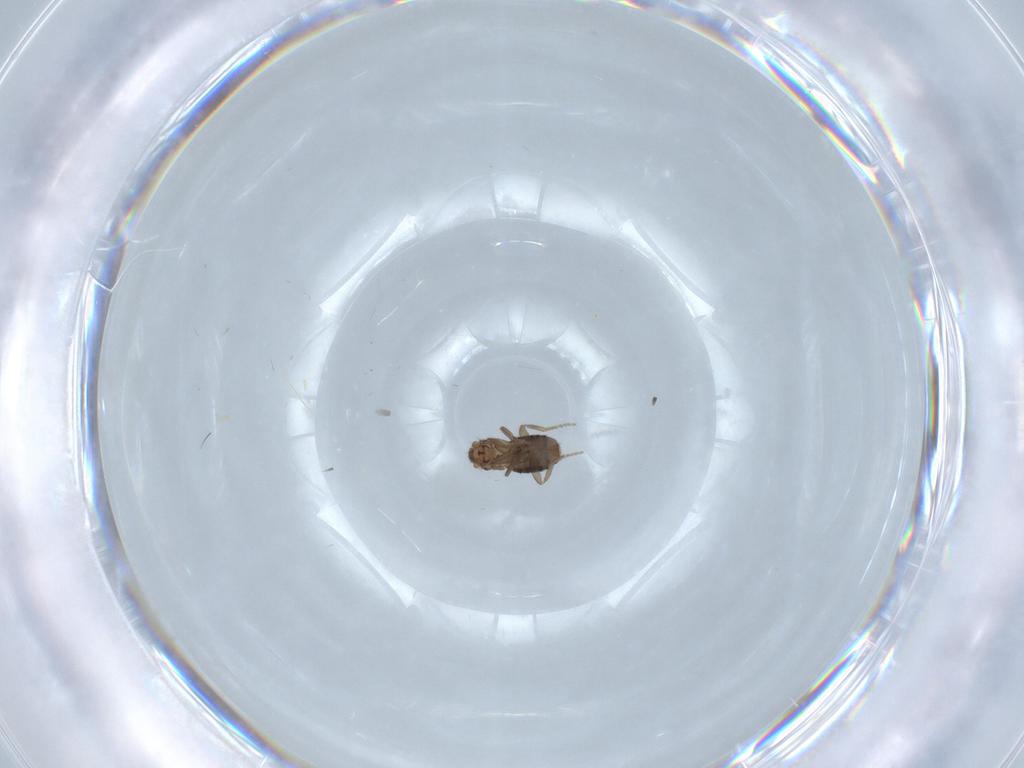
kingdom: Animalia
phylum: Arthropoda
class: Insecta
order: Diptera
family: Phoridae
